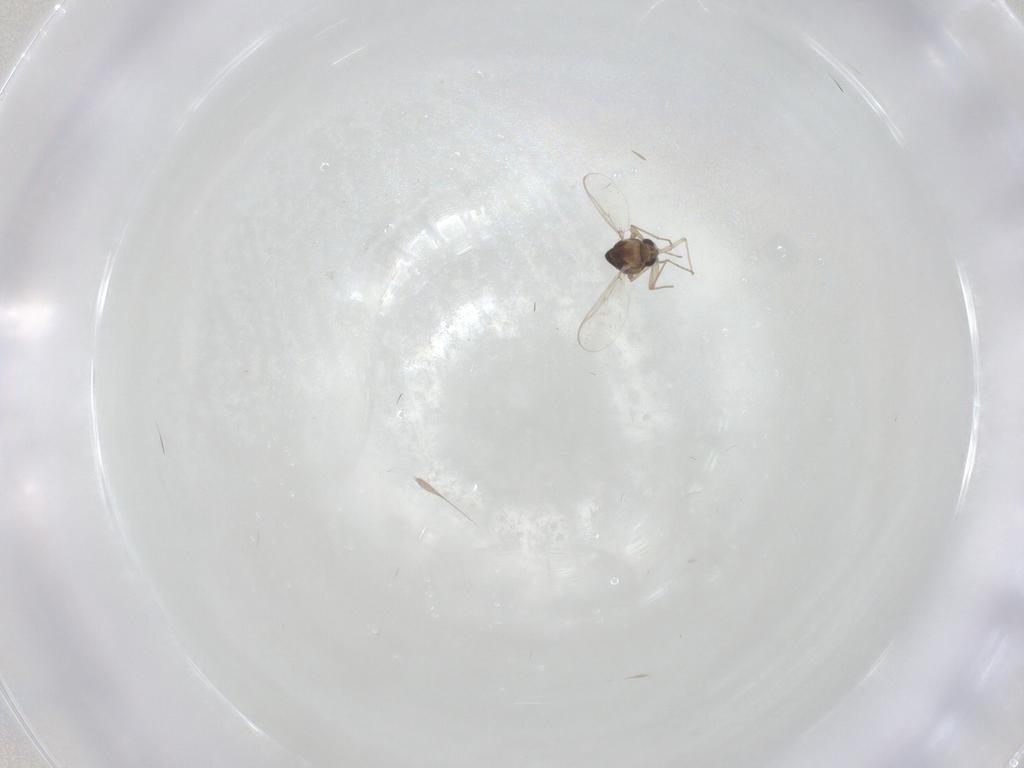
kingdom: Animalia
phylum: Arthropoda
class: Insecta
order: Diptera
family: Chironomidae
